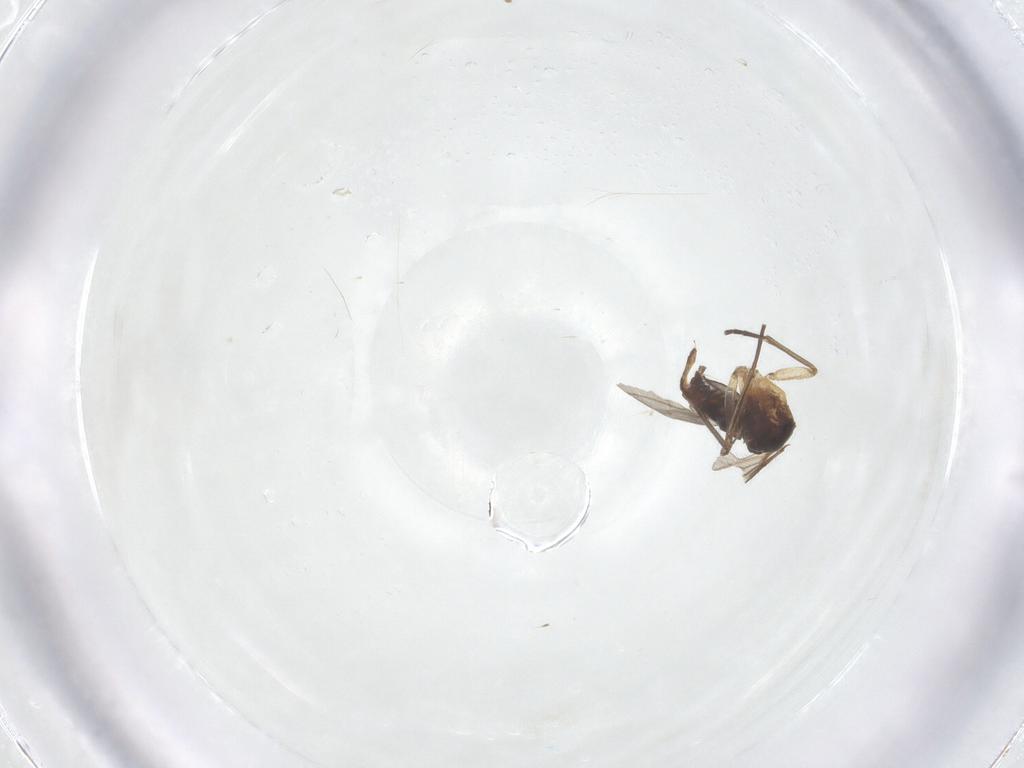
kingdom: Animalia
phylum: Arthropoda
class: Insecta
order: Diptera
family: Sciaridae
